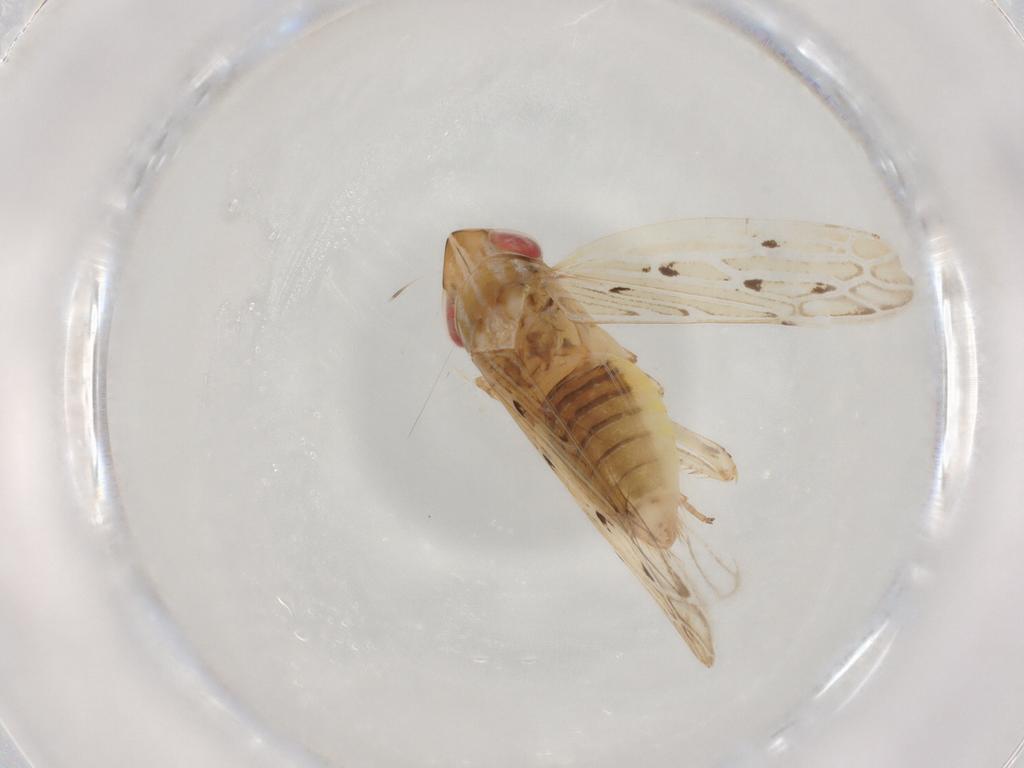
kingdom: Animalia
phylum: Arthropoda
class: Insecta
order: Hemiptera
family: Cicadellidae
